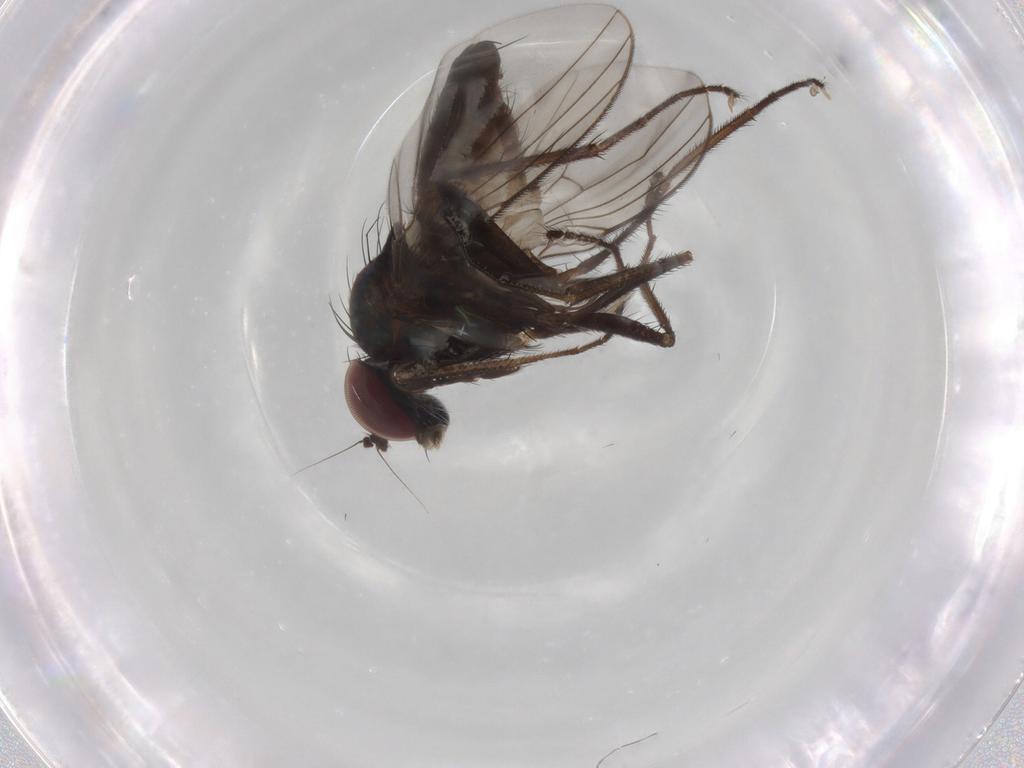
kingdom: Animalia
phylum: Arthropoda
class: Insecta
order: Diptera
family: Dolichopodidae
